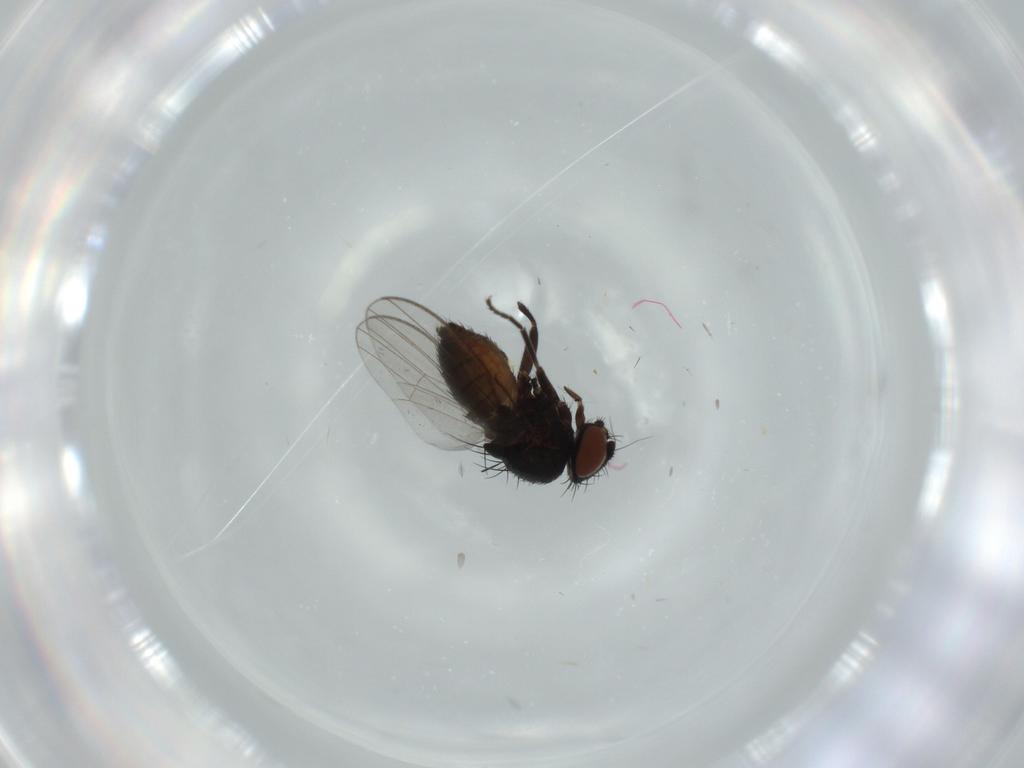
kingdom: Animalia
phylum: Arthropoda
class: Insecta
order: Diptera
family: Milichiidae
